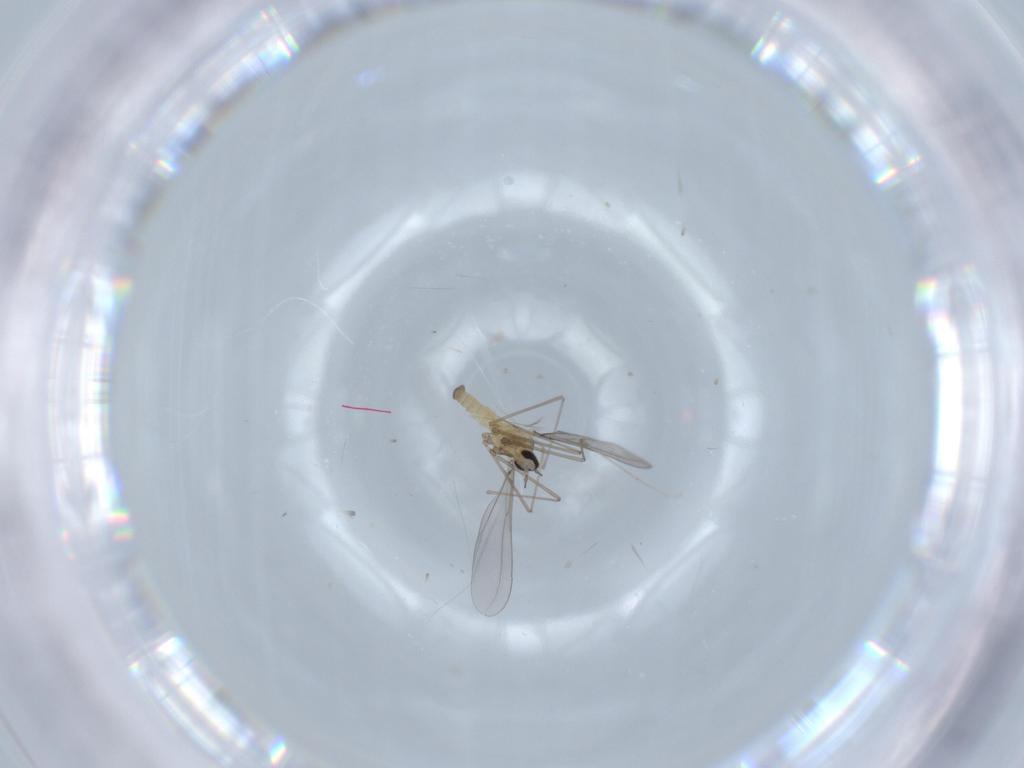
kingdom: Animalia
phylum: Arthropoda
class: Insecta
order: Diptera
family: Cecidomyiidae
